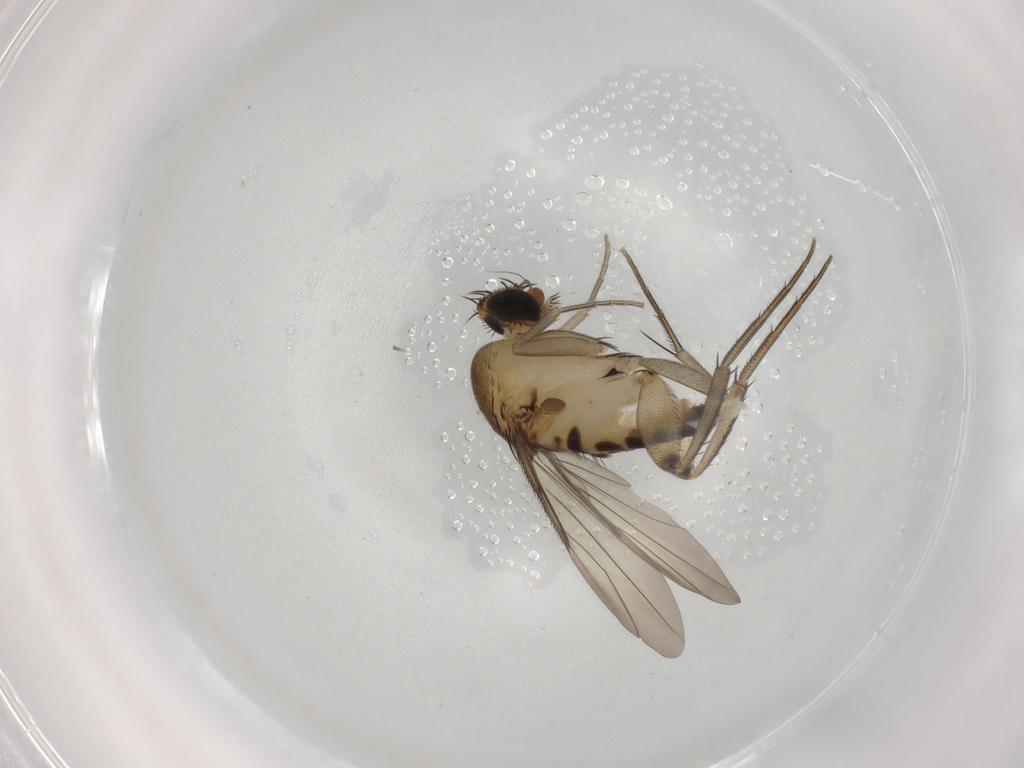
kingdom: Animalia
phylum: Arthropoda
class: Insecta
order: Diptera
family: Phoridae
